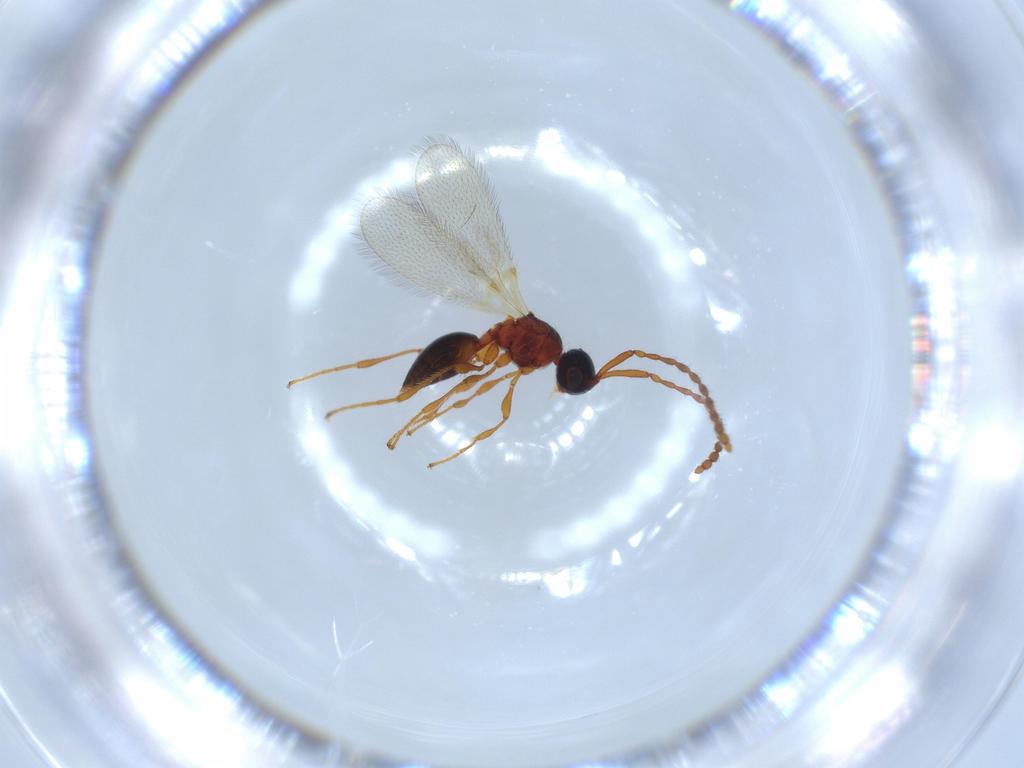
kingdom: Animalia
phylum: Arthropoda
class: Insecta
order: Hymenoptera
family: Diapriidae
